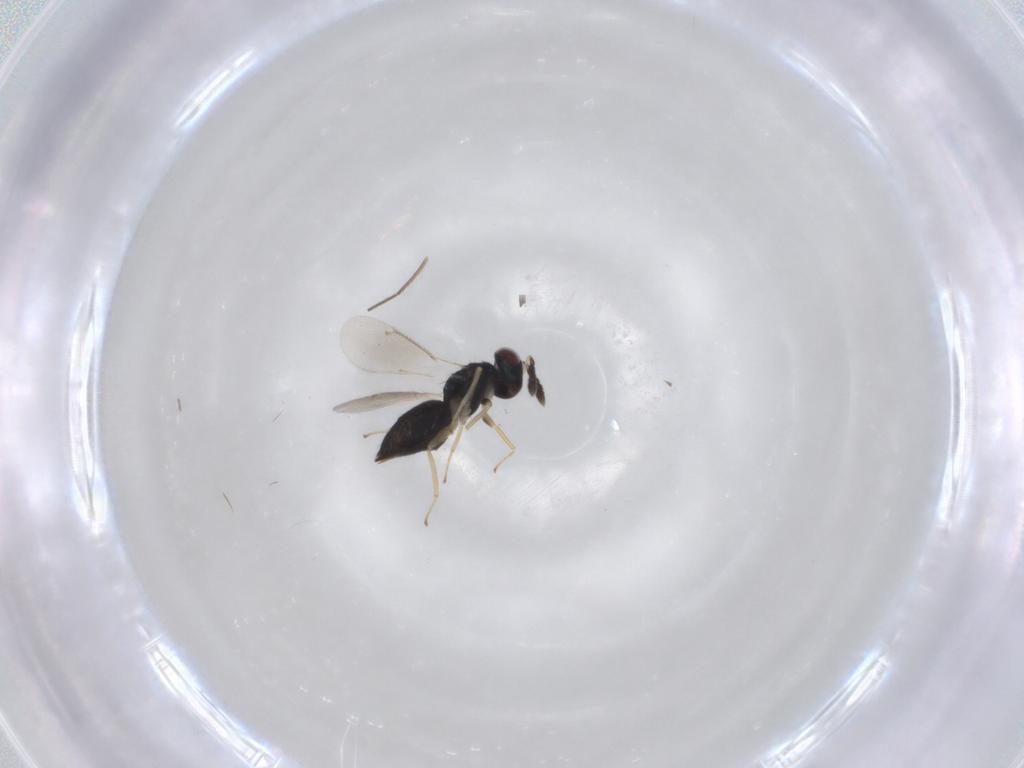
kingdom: Animalia
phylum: Arthropoda
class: Insecta
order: Hymenoptera
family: Eulophidae
